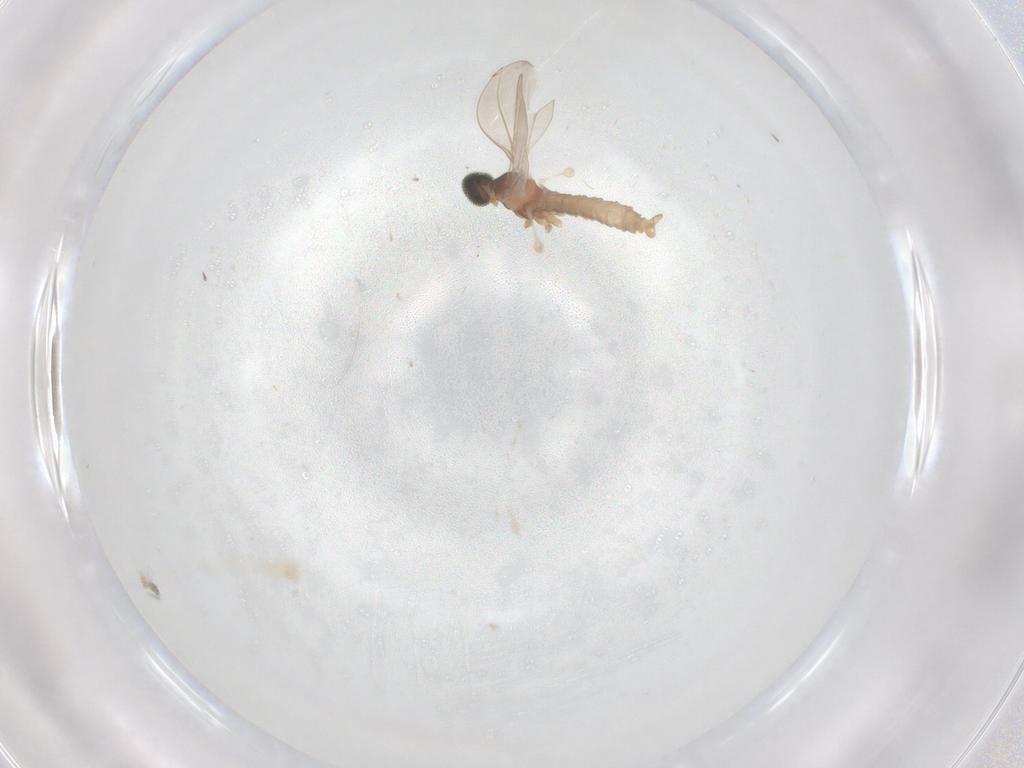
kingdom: Animalia
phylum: Arthropoda
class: Insecta
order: Diptera
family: Cecidomyiidae
